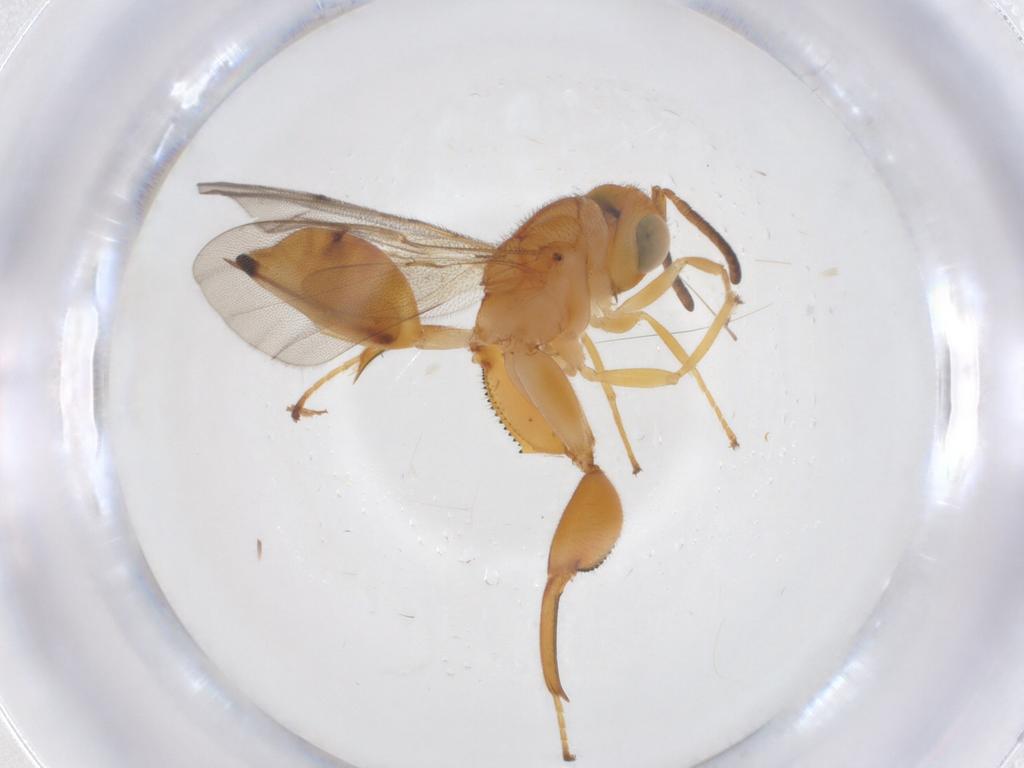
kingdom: Animalia
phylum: Arthropoda
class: Insecta
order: Hymenoptera
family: Chalcididae
